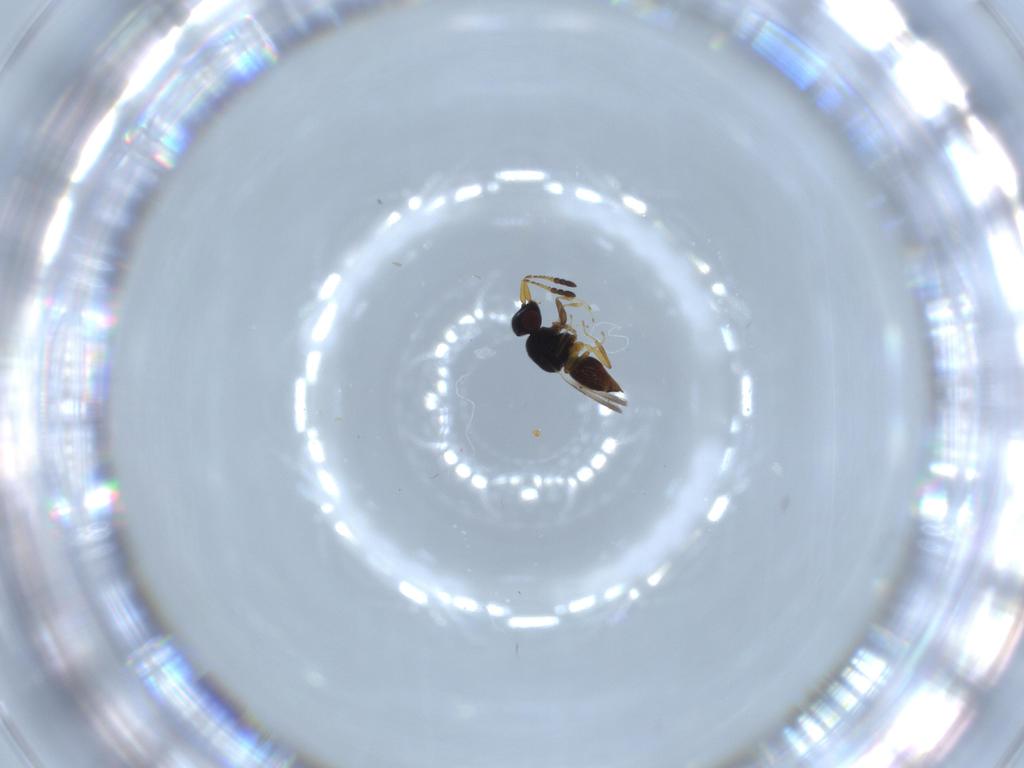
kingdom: Animalia
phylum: Arthropoda
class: Insecta
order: Hymenoptera
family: Ceraphronidae
